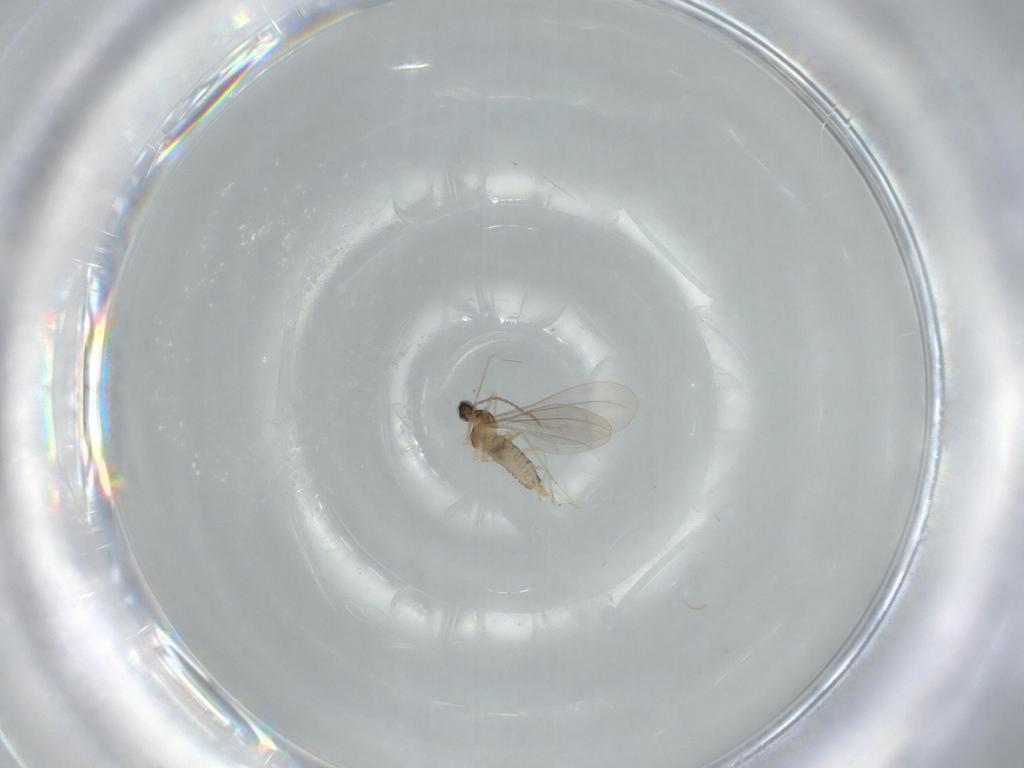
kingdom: Animalia
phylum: Arthropoda
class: Insecta
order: Diptera
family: Cecidomyiidae
